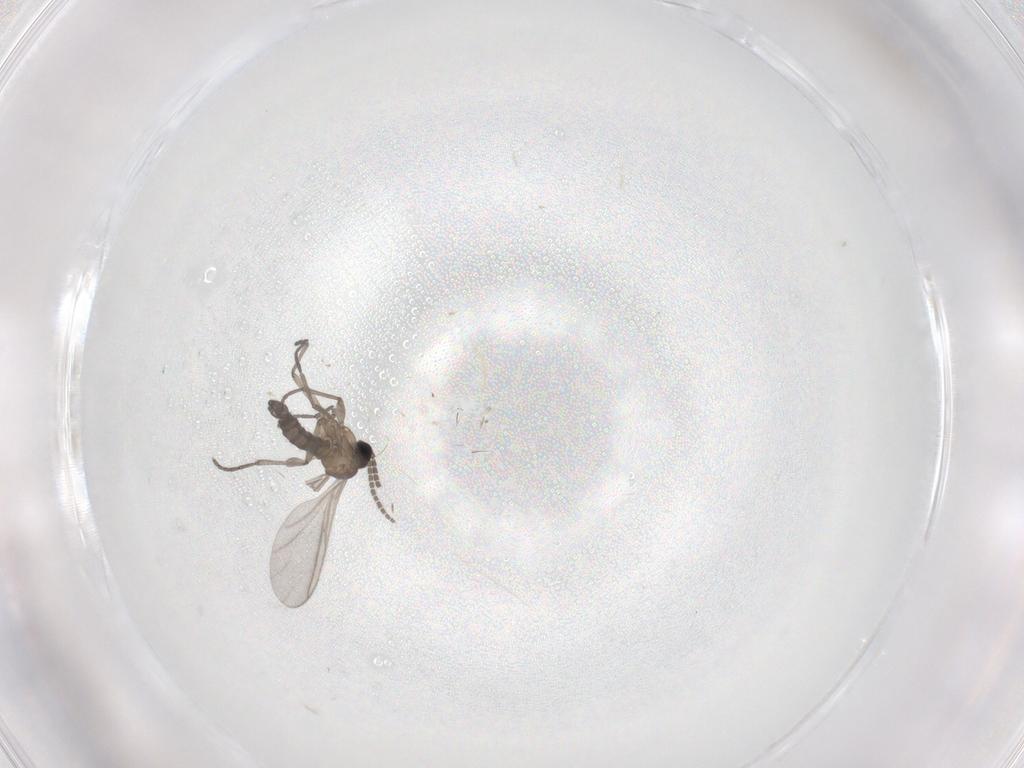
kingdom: Animalia
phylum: Arthropoda
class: Insecta
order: Diptera
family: Sciaridae
